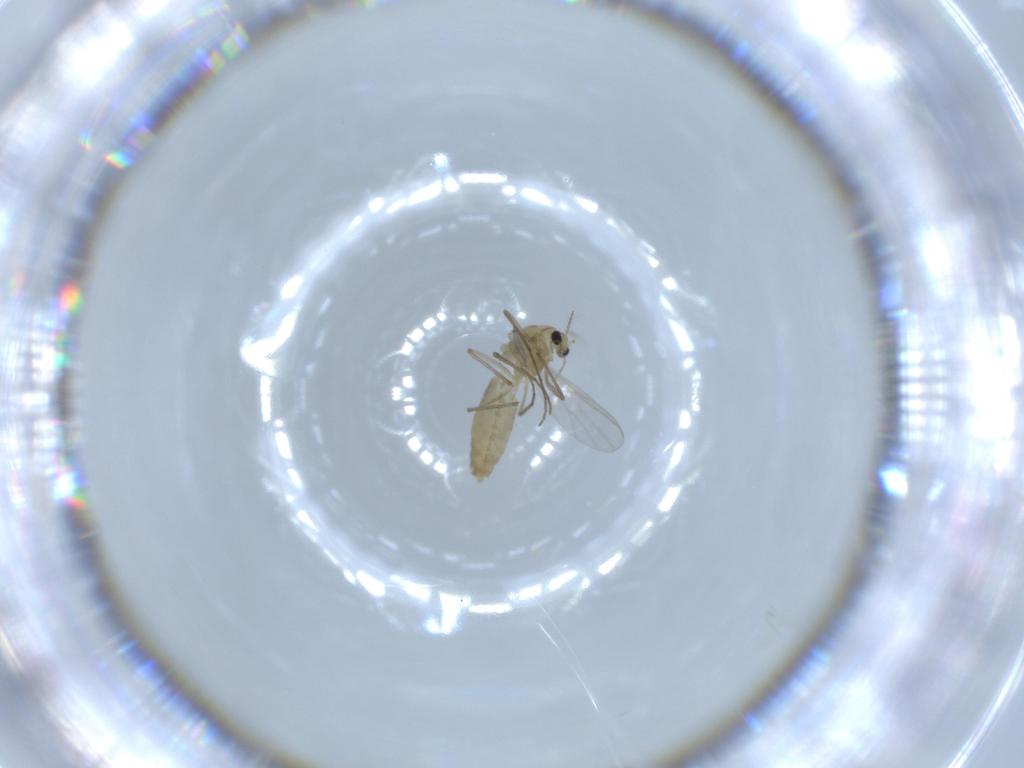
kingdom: Animalia
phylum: Arthropoda
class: Insecta
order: Diptera
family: Chironomidae
